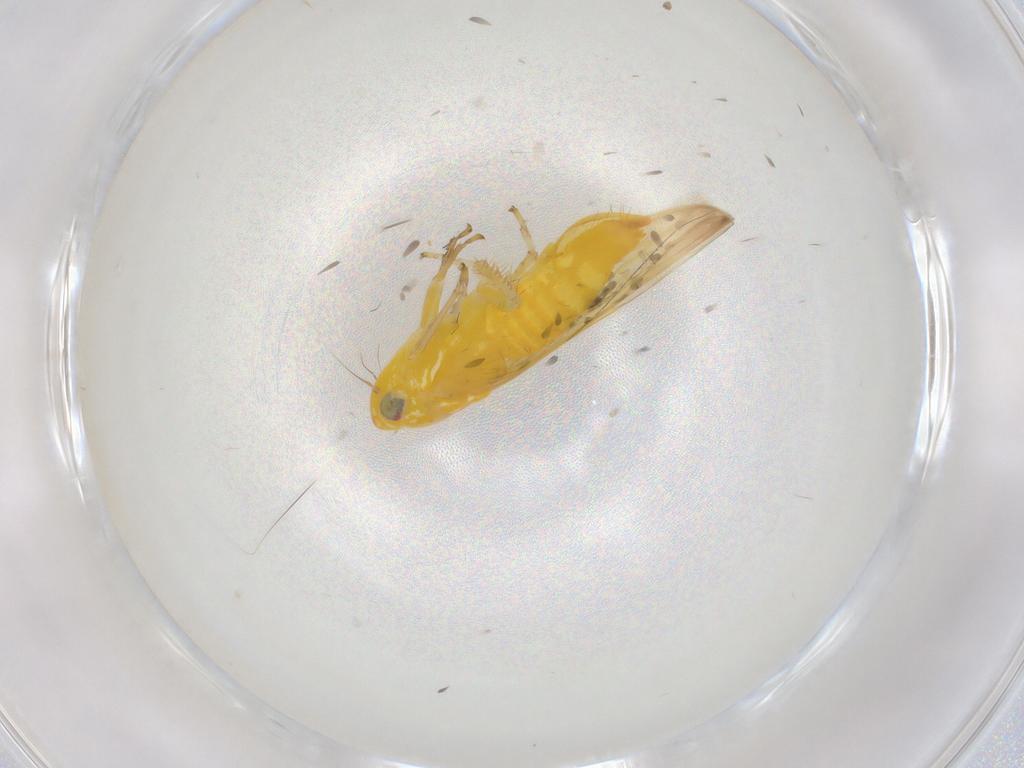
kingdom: Animalia
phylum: Arthropoda
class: Insecta
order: Hemiptera
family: Cicadellidae
